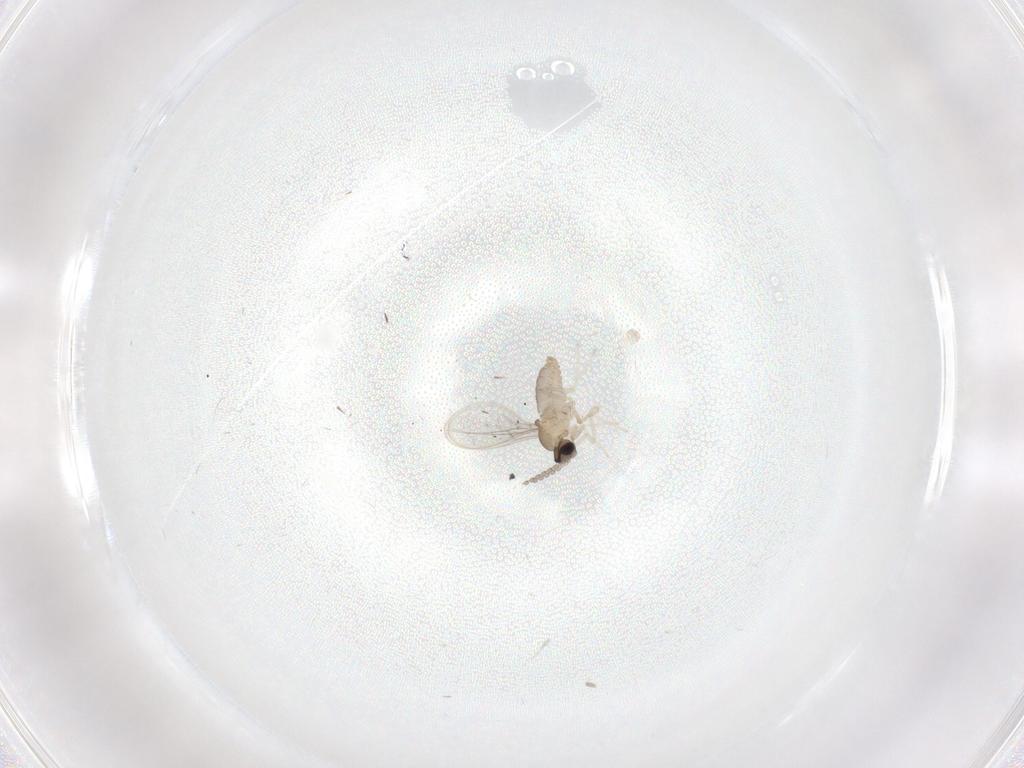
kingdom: Animalia
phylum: Arthropoda
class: Insecta
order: Diptera
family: Cecidomyiidae
